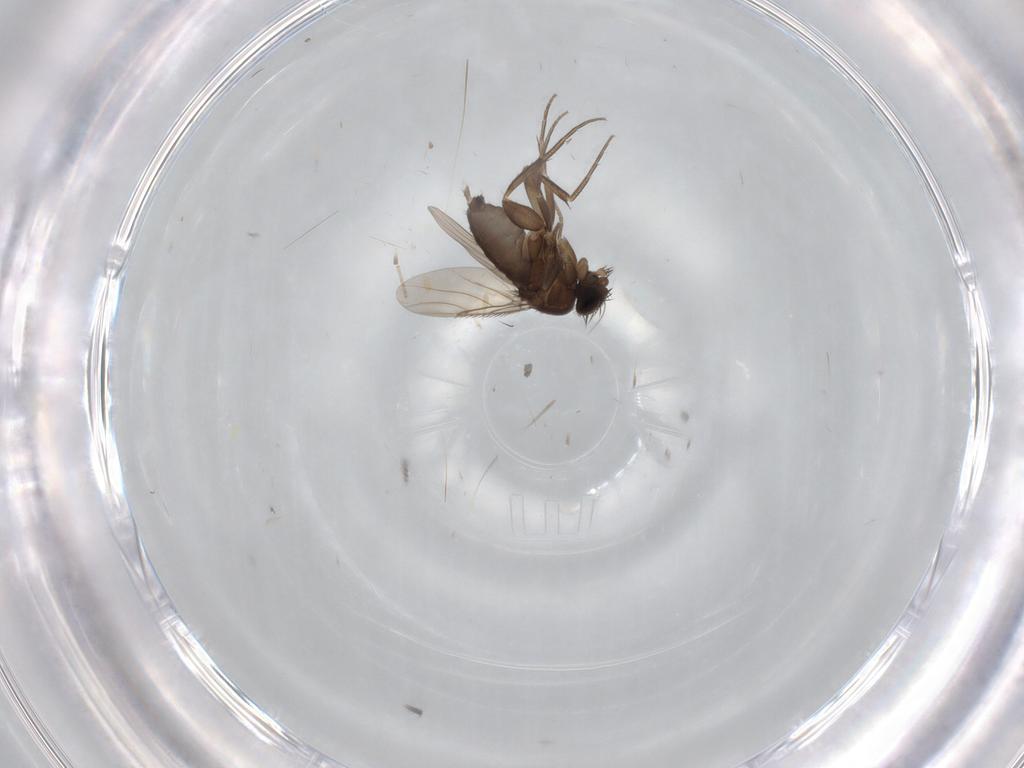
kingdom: Animalia
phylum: Arthropoda
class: Insecta
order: Diptera
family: Phoridae
